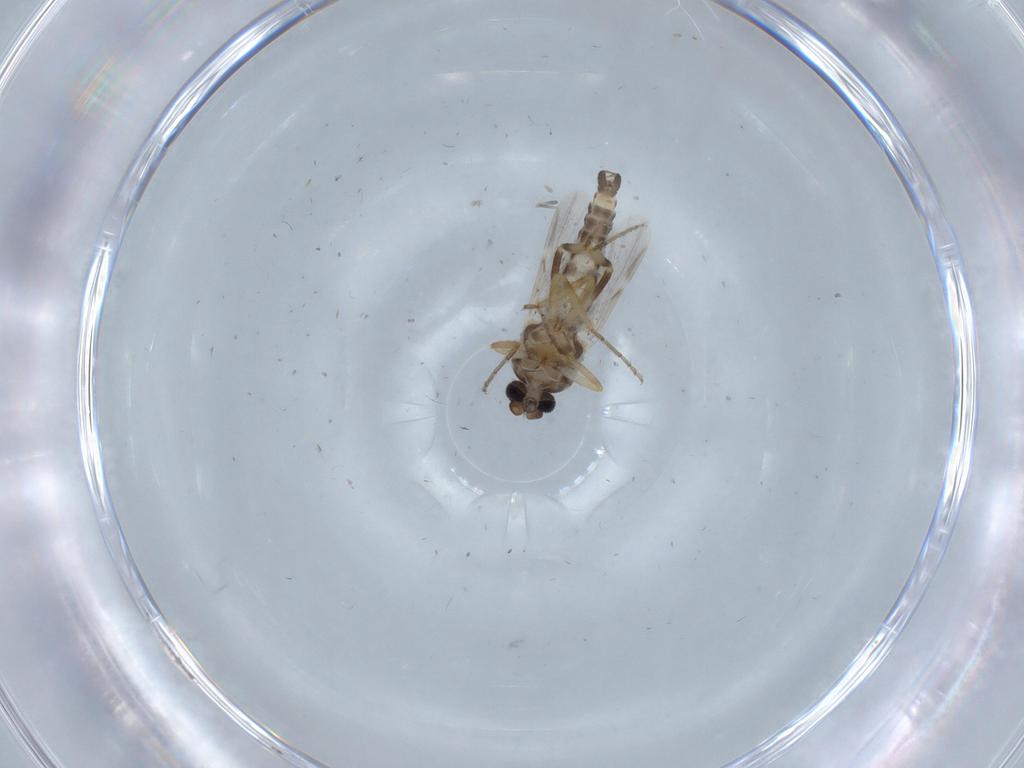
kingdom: Animalia
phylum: Arthropoda
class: Insecta
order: Diptera
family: Ceratopogonidae
